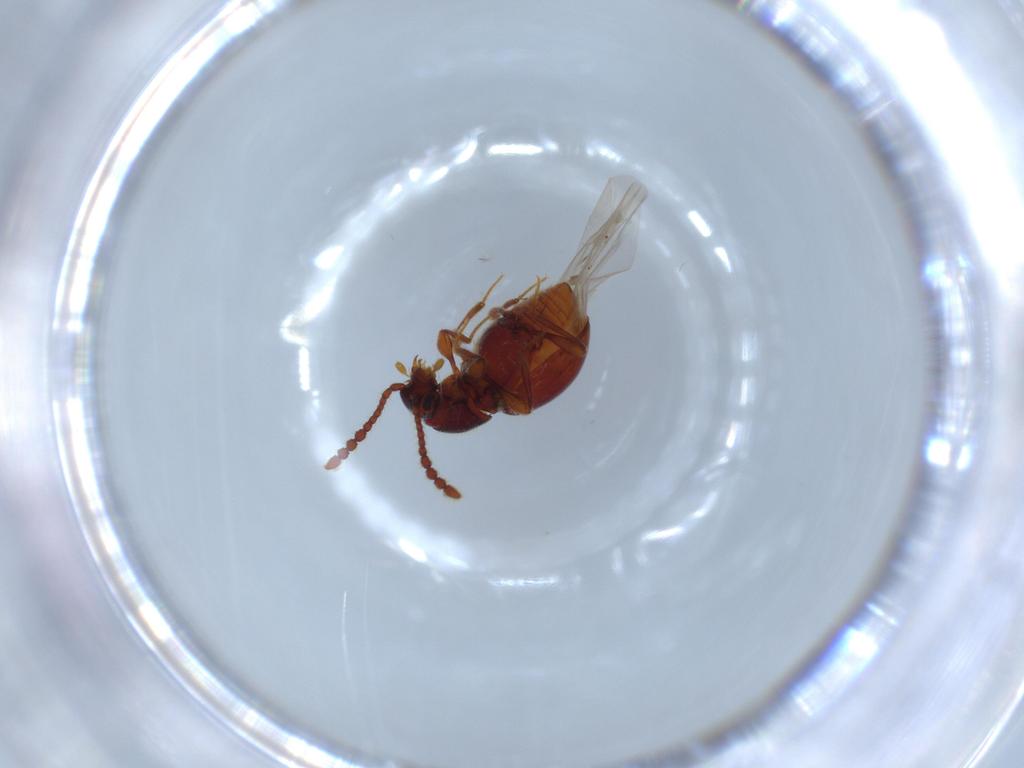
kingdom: Animalia
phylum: Arthropoda
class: Insecta
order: Coleoptera
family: Staphylinidae
